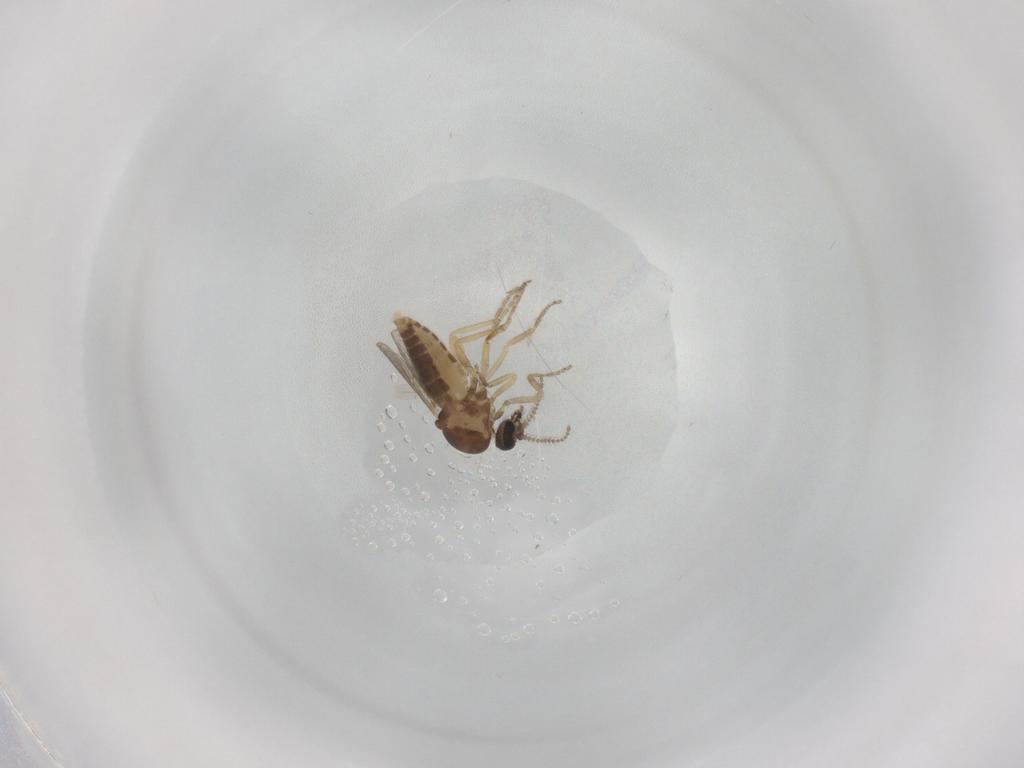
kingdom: Animalia
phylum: Arthropoda
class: Insecta
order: Diptera
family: Ceratopogonidae
